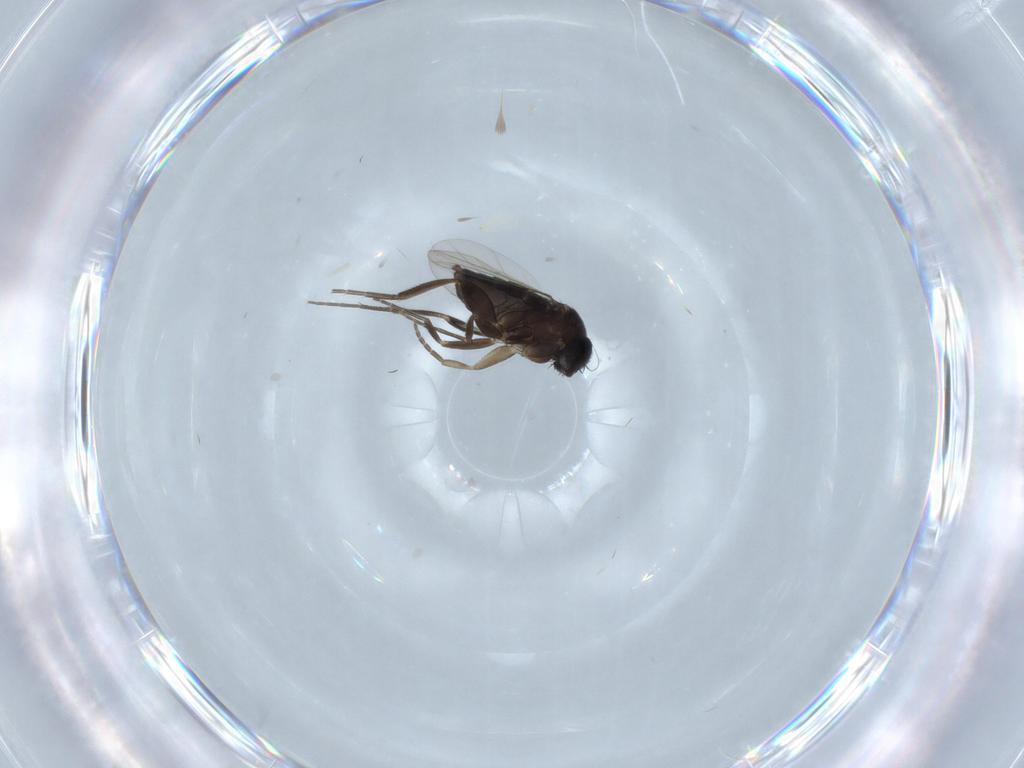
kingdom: Animalia
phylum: Arthropoda
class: Insecta
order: Diptera
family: Phoridae
